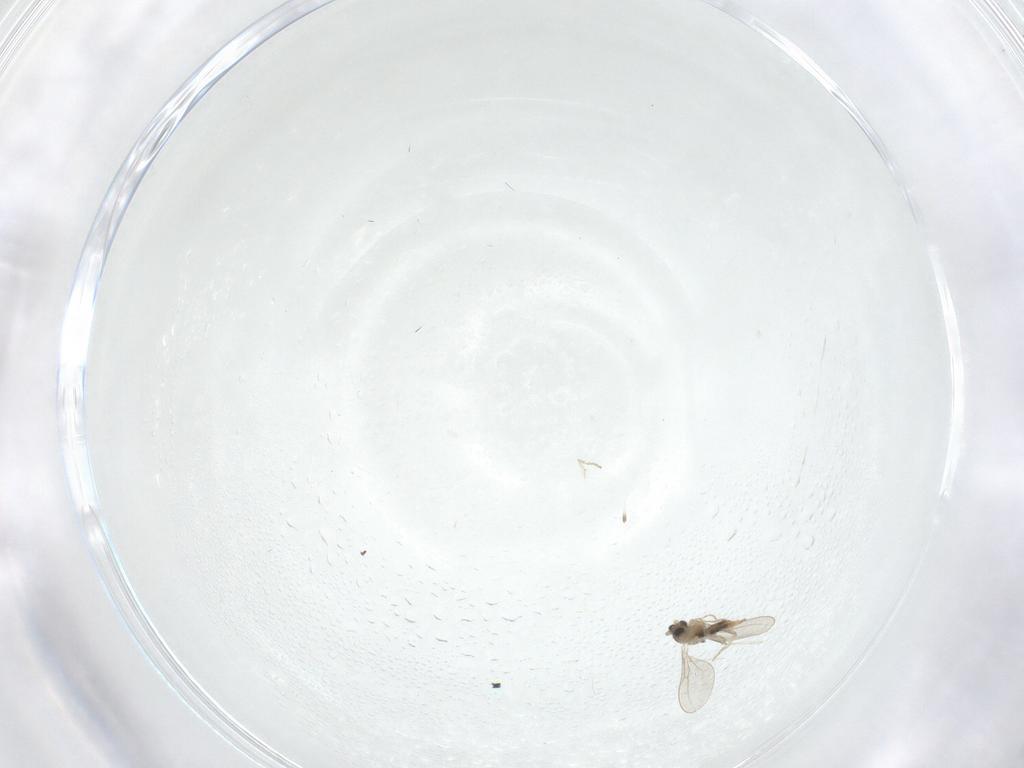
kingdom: Animalia
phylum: Arthropoda
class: Insecta
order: Diptera
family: Cecidomyiidae
